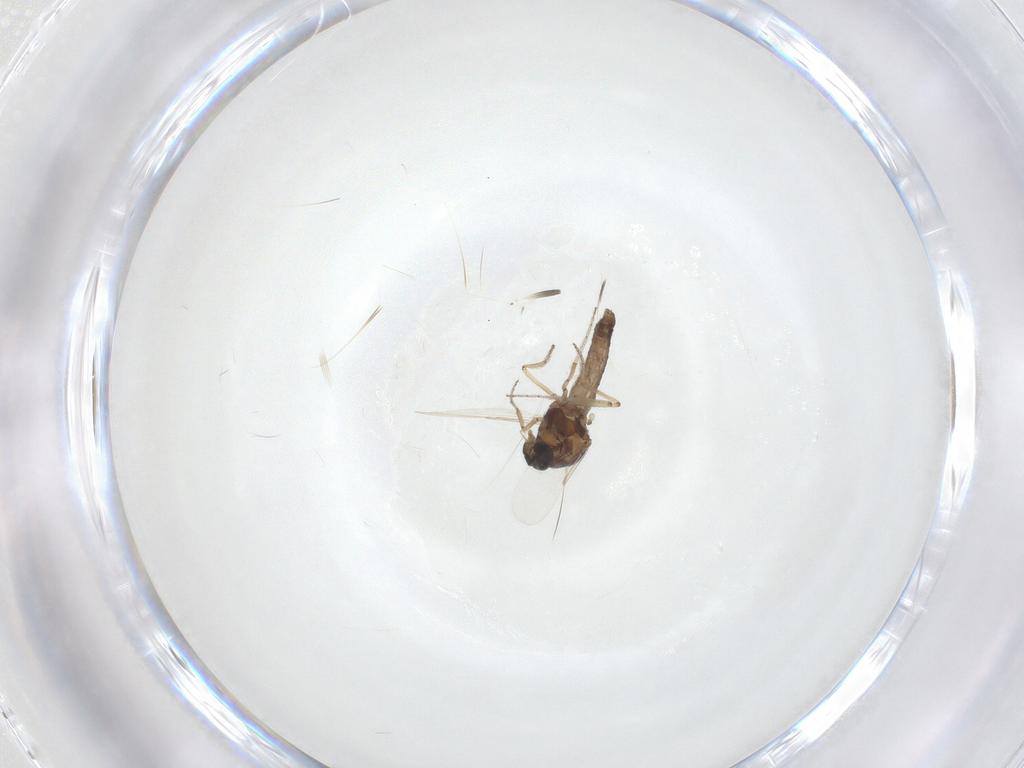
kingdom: Animalia
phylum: Arthropoda
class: Insecta
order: Diptera
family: Ceratopogonidae
